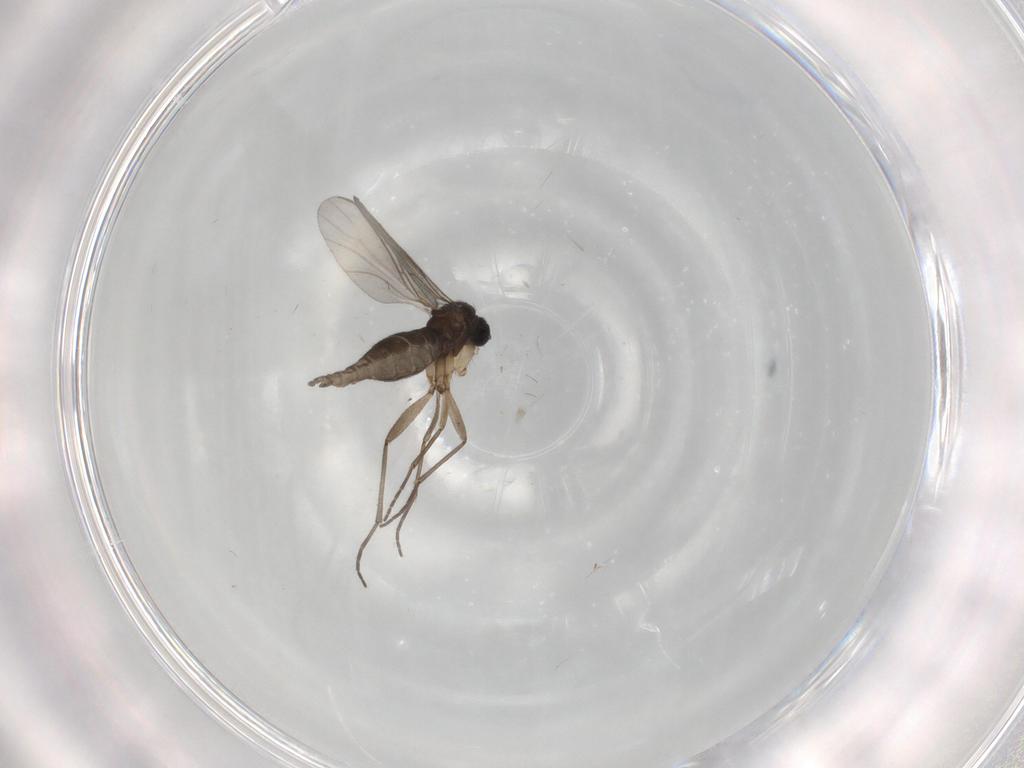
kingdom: Animalia
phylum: Arthropoda
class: Insecta
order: Diptera
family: Sciaridae
